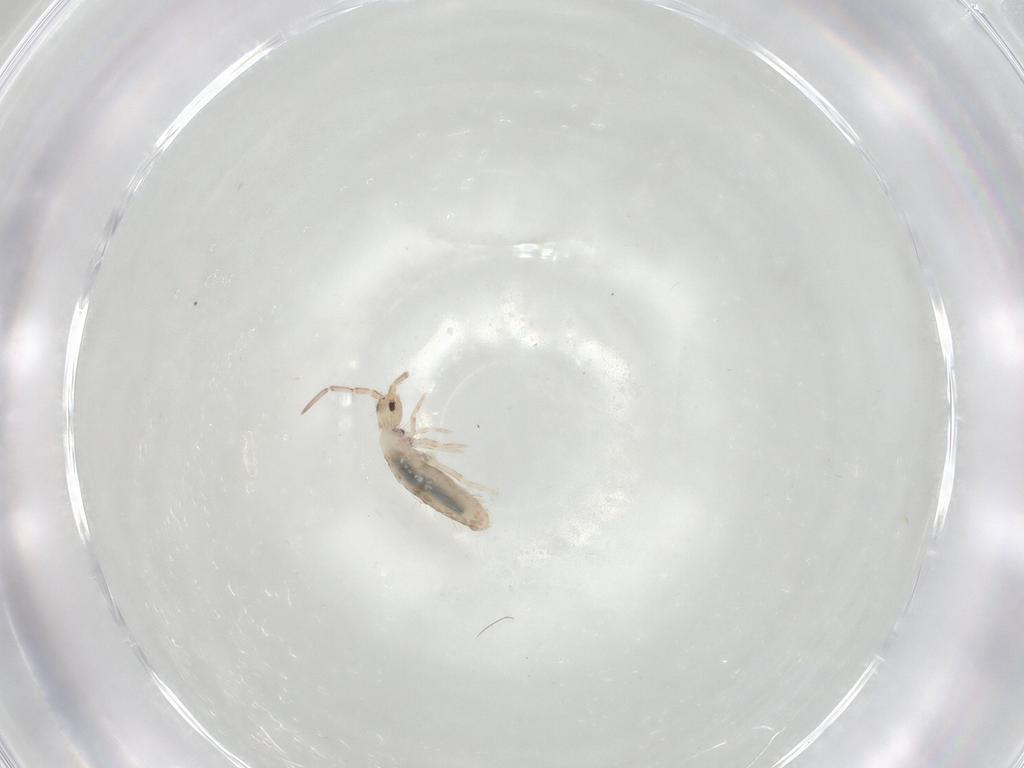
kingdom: Animalia
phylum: Arthropoda
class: Collembola
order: Entomobryomorpha
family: Entomobryidae
